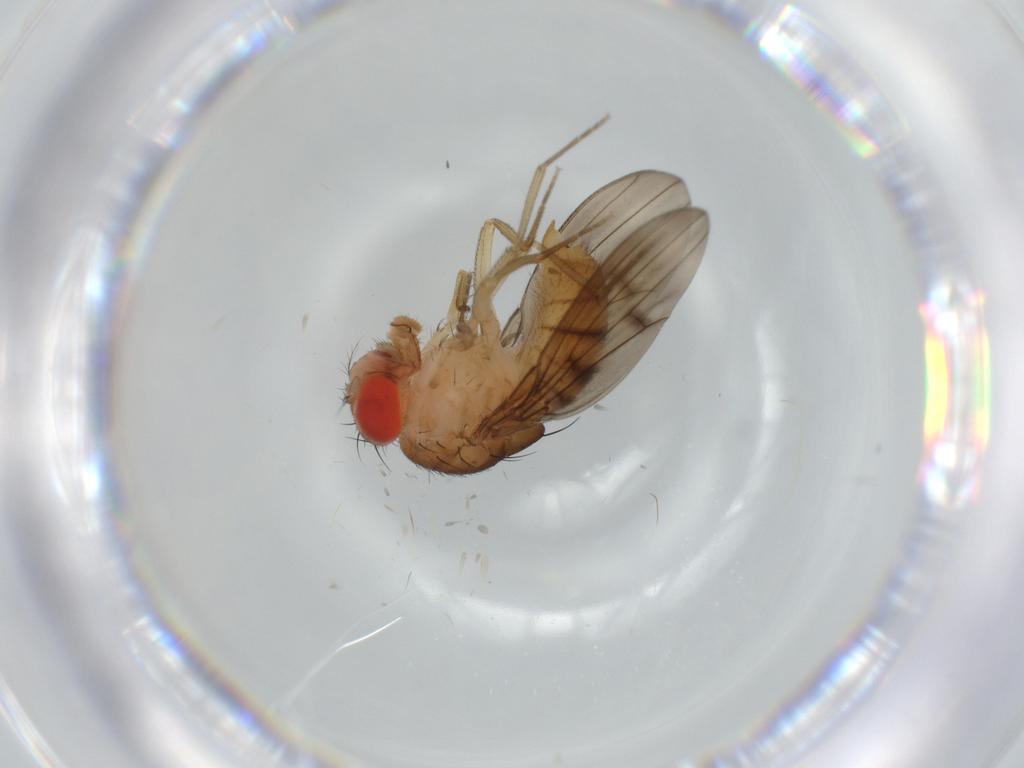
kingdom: Animalia
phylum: Arthropoda
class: Insecta
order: Diptera
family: Drosophilidae
